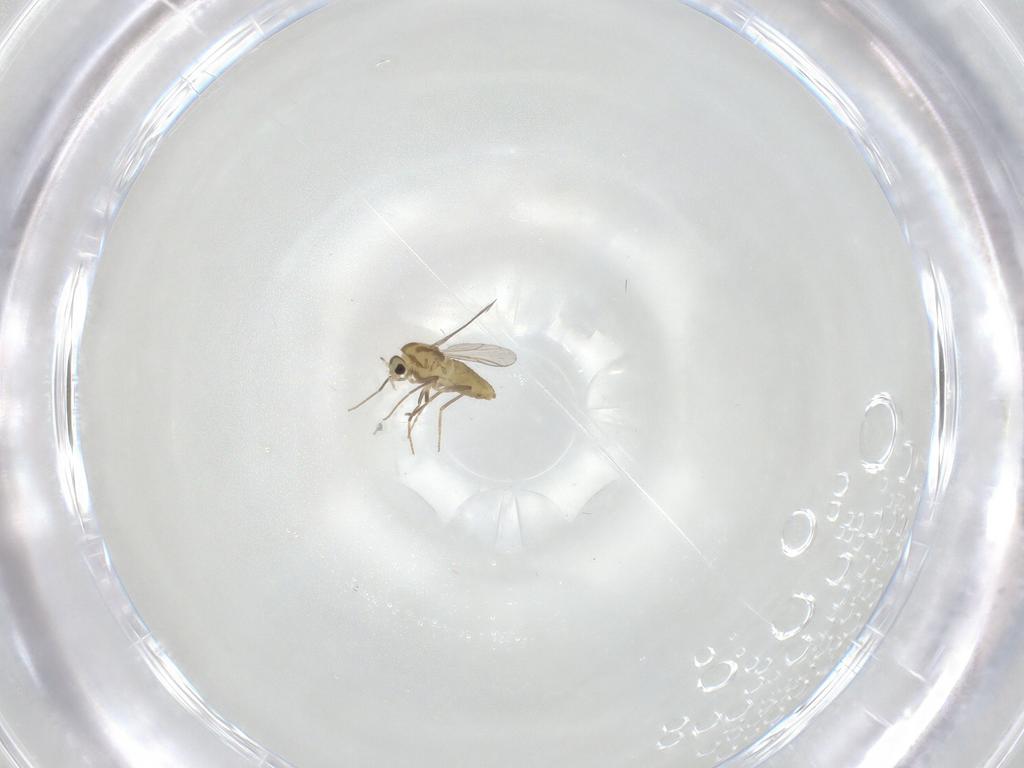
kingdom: Animalia
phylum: Arthropoda
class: Insecta
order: Diptera
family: Chironomidae
